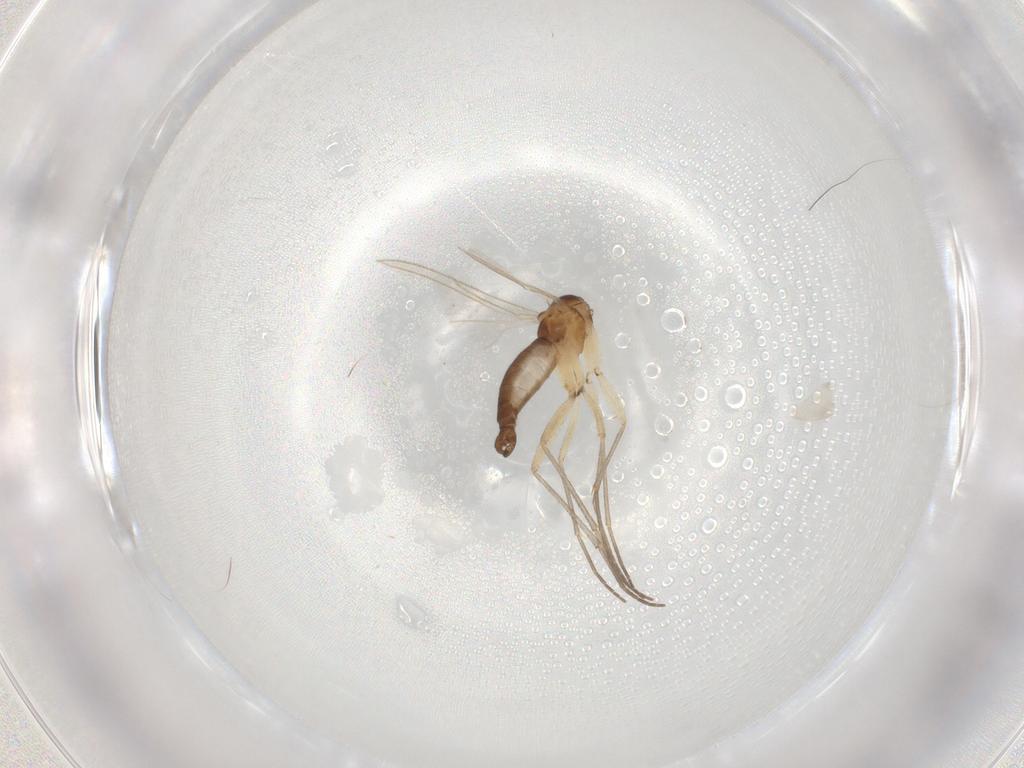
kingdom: Animalia
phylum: Arthropoda
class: Insecta
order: Diptera
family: Sciaridae
